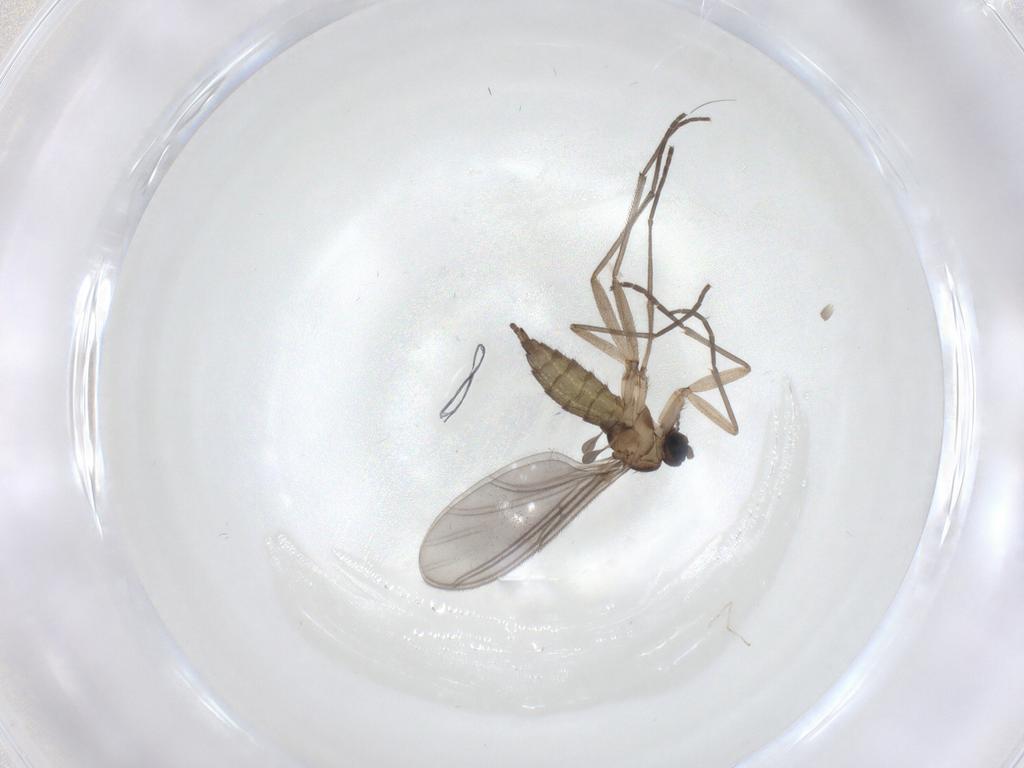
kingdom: Animalia
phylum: Arthropoda
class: Insecta
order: Diptera
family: Sciaridae
